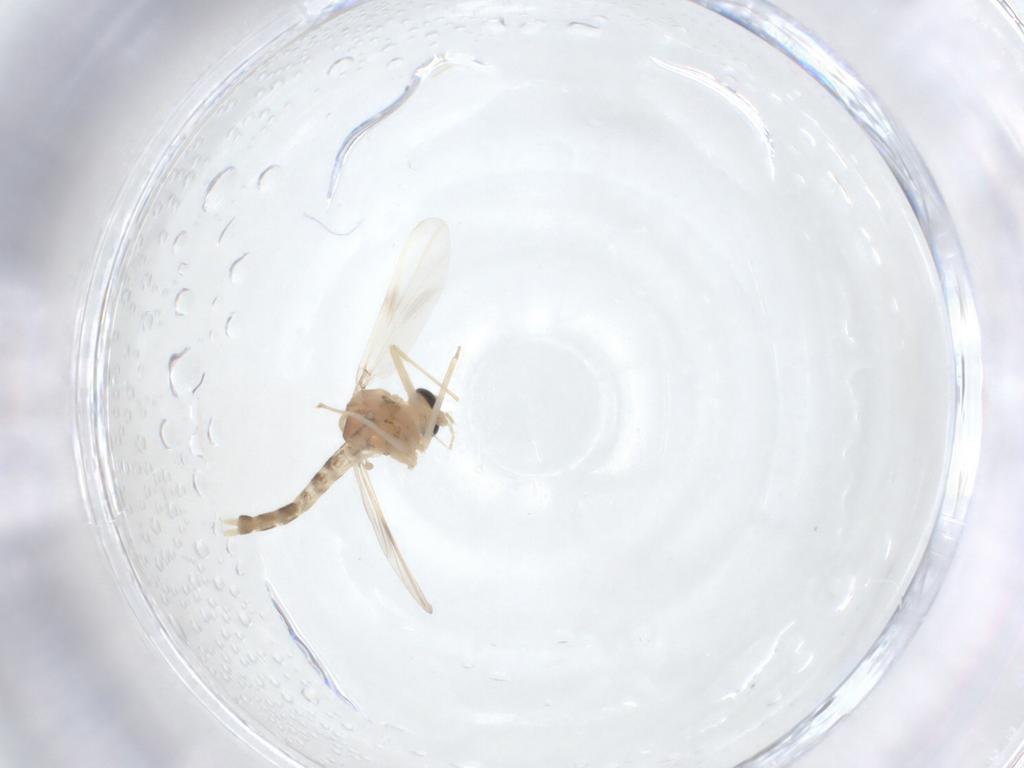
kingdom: Animalia
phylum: Arthropoda
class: Insecta
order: Diptera
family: Chironomidae
